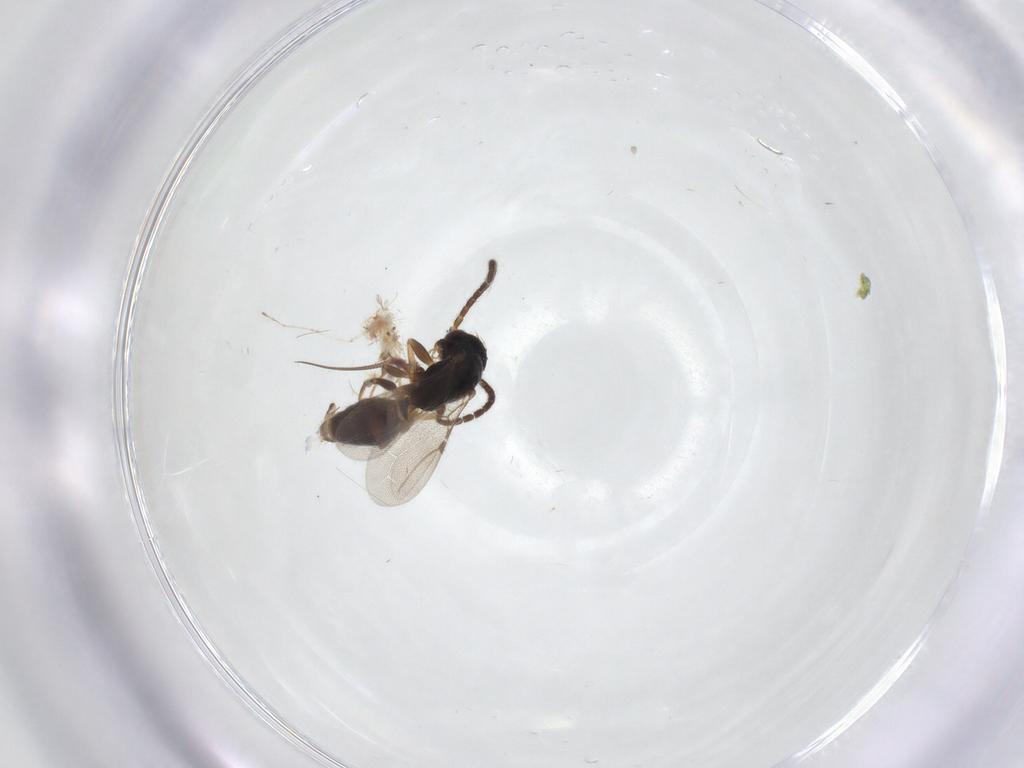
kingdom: Animalia
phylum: Arthropoda
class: Insecta
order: Hymenoptera
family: Bethylidae
